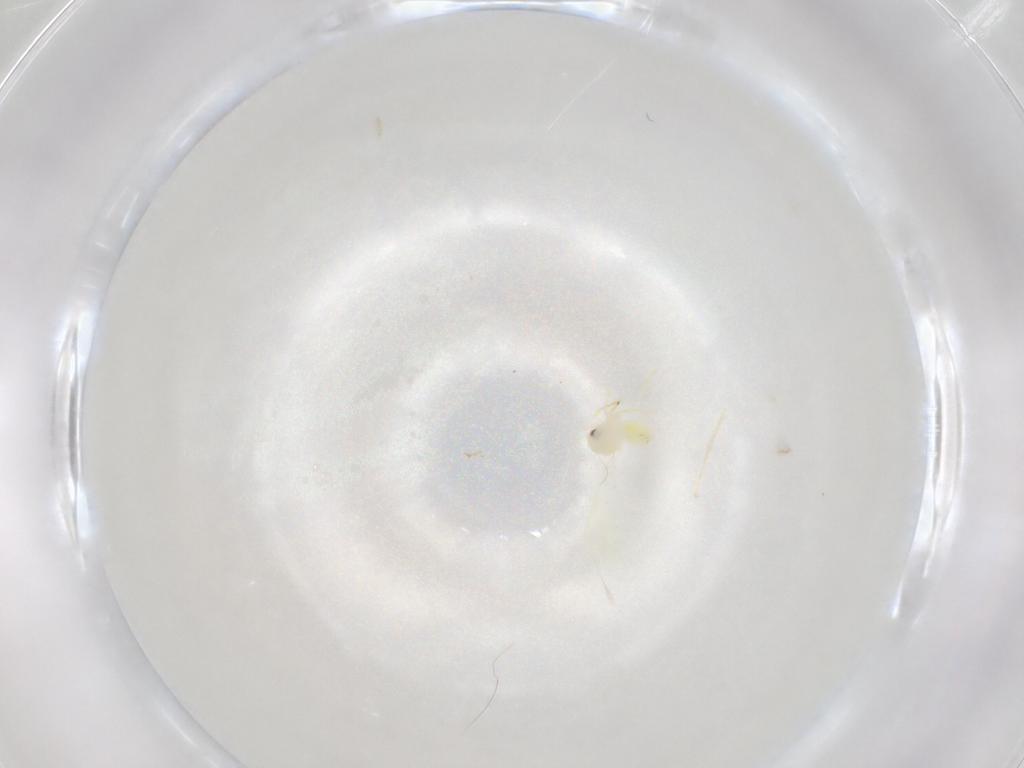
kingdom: Animalia
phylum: Arthropoda
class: Insecta
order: Hemiptera
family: Aleyrodidae
